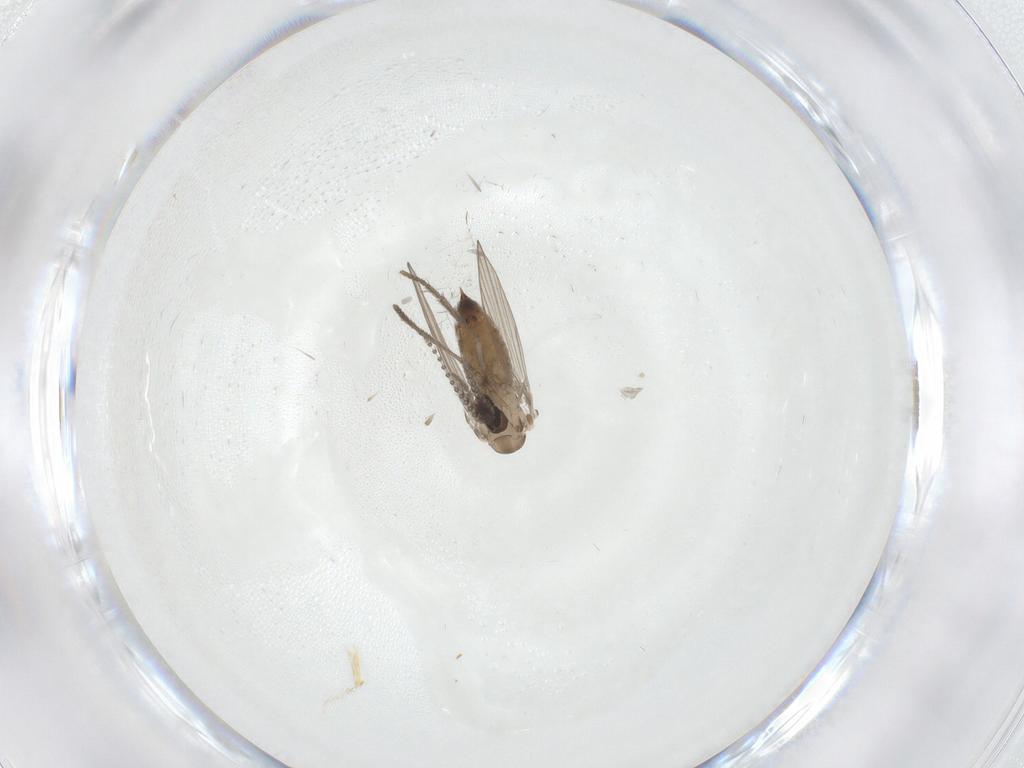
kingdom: Animalia
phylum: Arthropoda
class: Insecta
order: Diptera
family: Psychodidae
